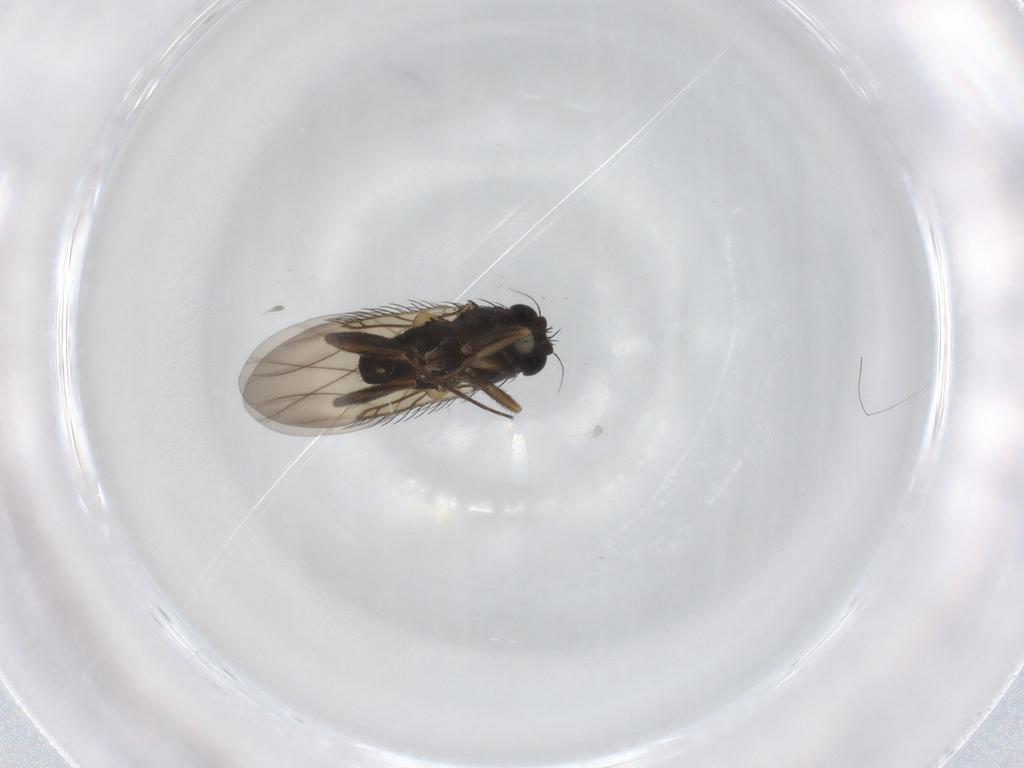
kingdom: Animalia
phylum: Arthropoda
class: Insecta
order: Diptera
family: Phoridae
